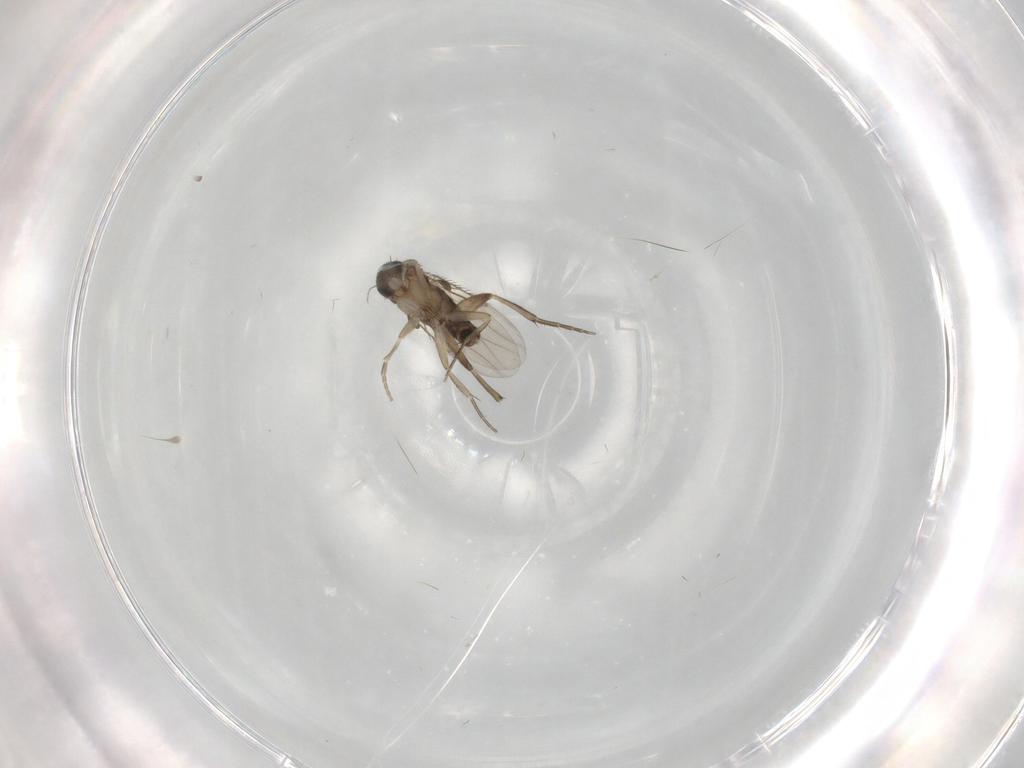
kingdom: Animalia
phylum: Arthropoda
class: Insecta
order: Diptera
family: Phoridae
